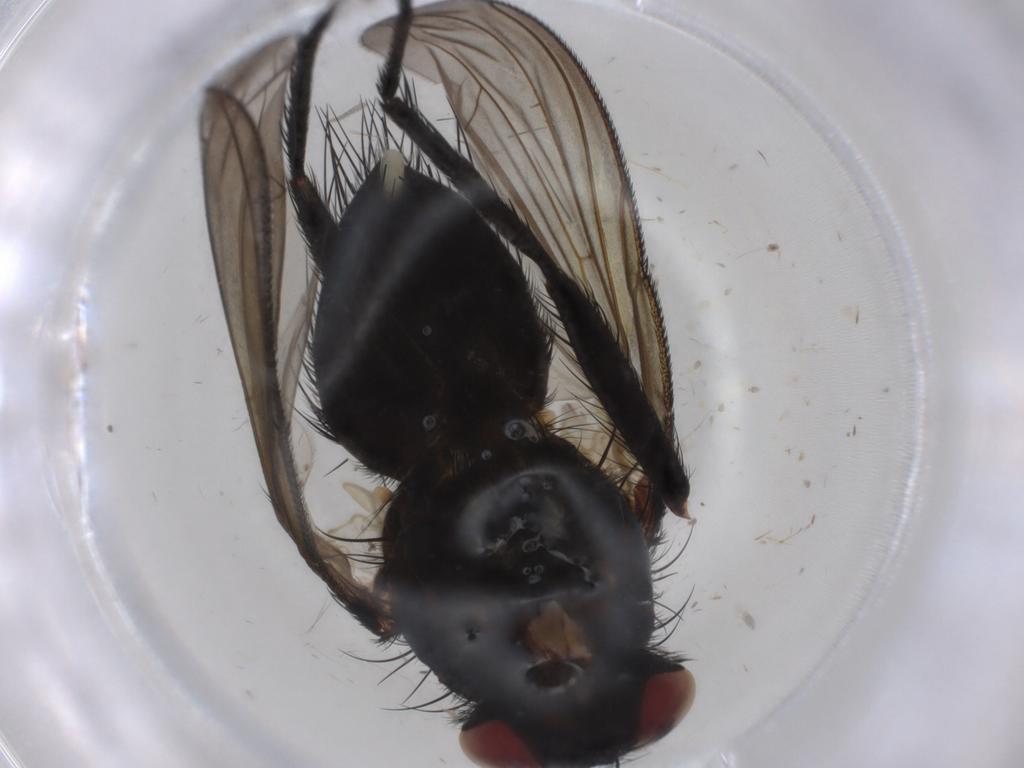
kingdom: Animalia
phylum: Arthropoda
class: Insecta
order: Diptera
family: Tachinidae
